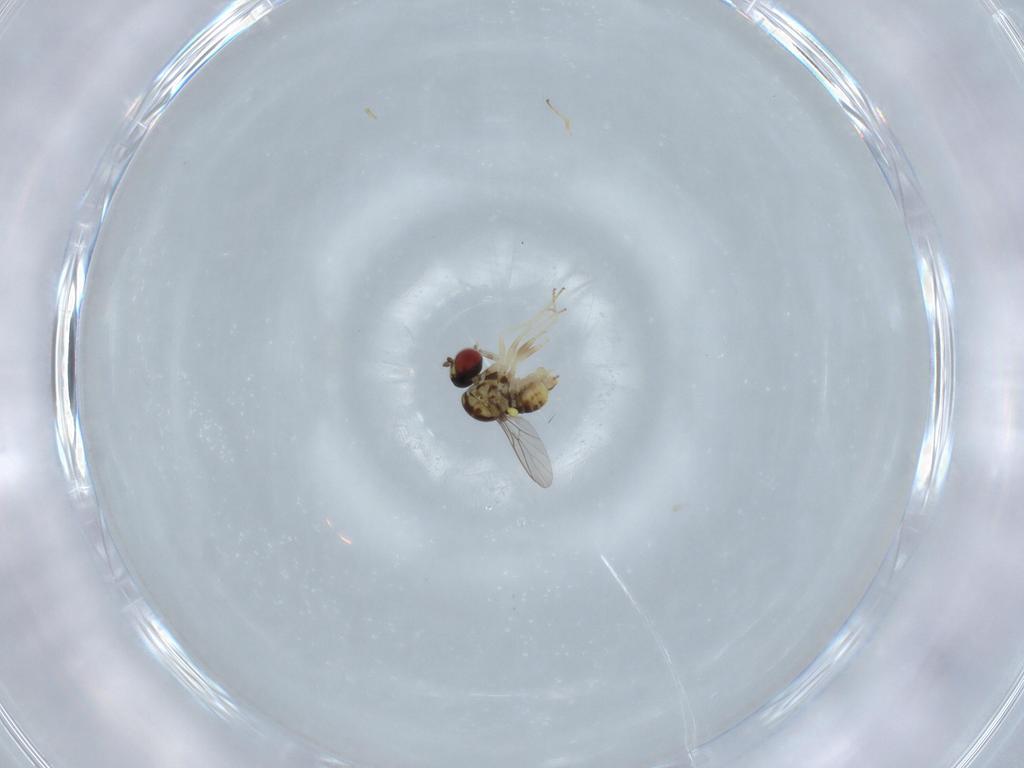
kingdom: Animalia
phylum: Arthropoda
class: Insecta
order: Diptera
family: Bombyliidae
